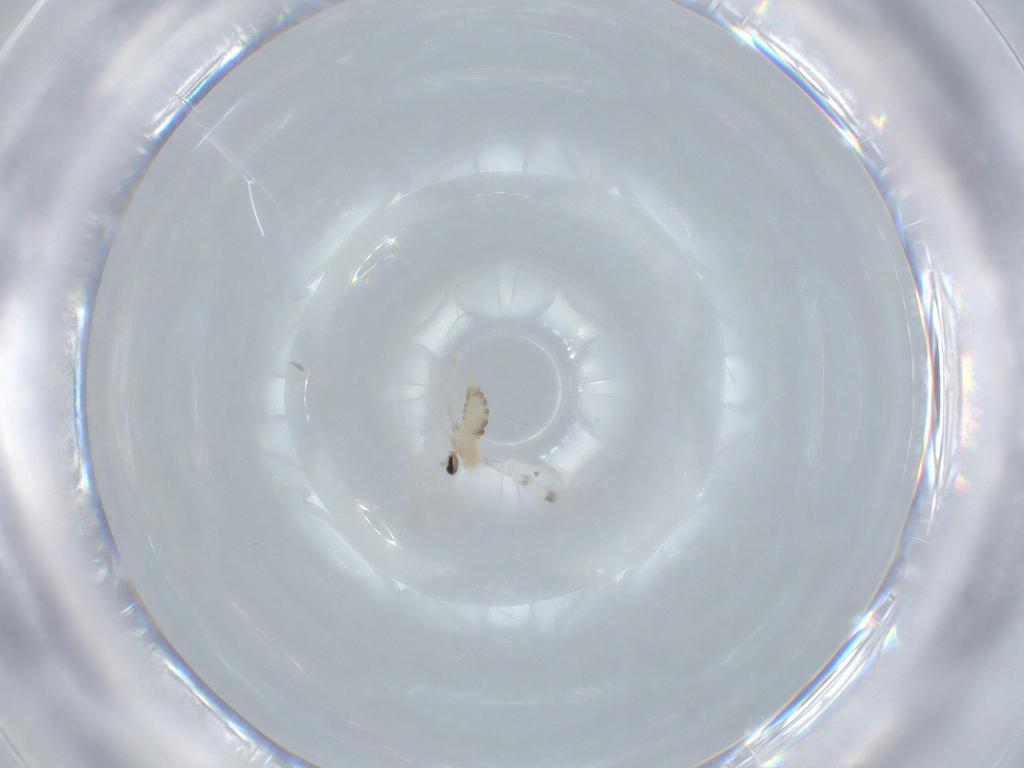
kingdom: Animalia
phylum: Arthropoda
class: Insecta
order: Diptera
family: Cecidomyiidae
